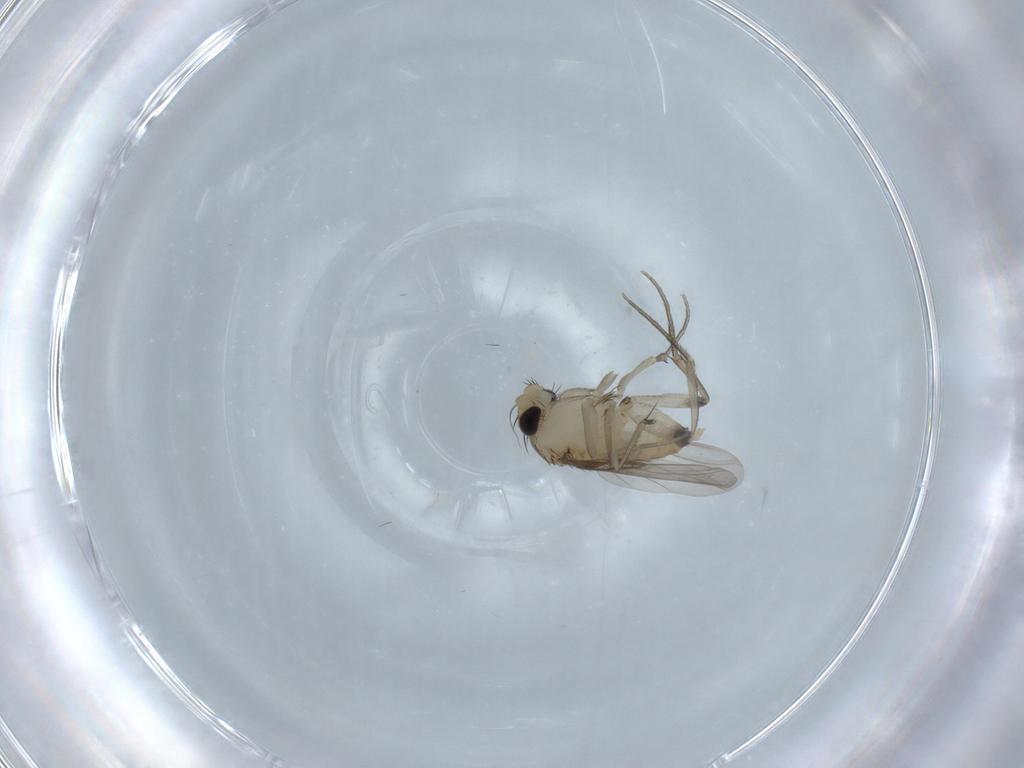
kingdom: Animalia
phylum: Arthropoda
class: Insecta
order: Diptera
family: Phoridae
